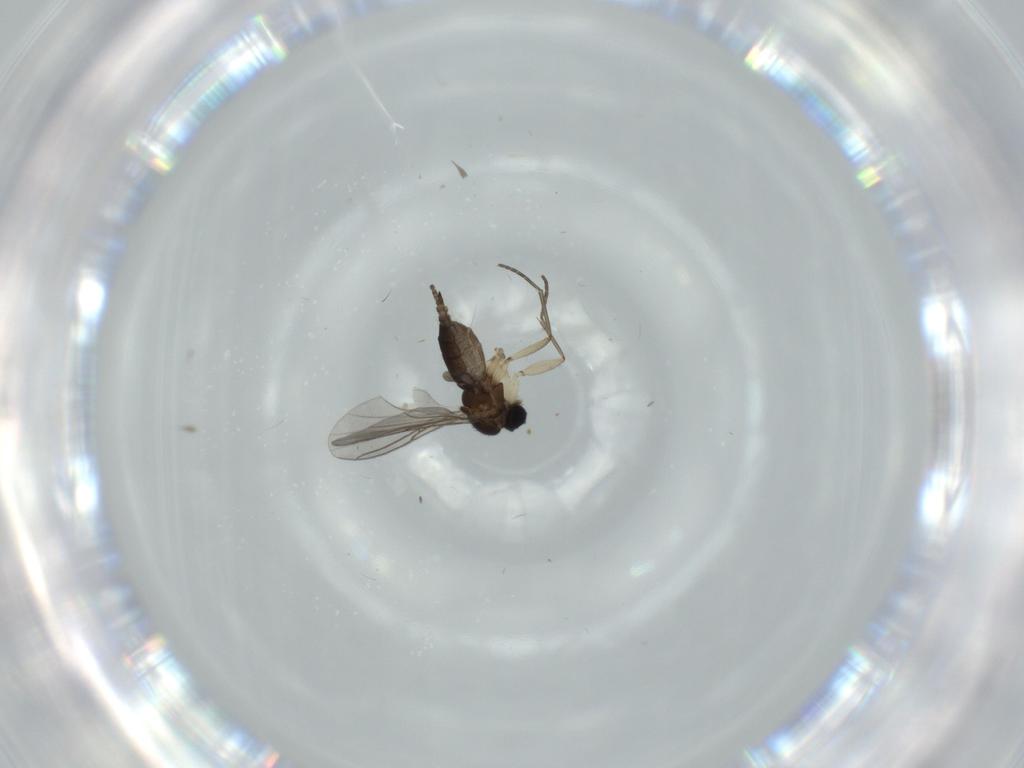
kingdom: Animalia
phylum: Arthropoda
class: Insecta
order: Diptera
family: Sciaridae
